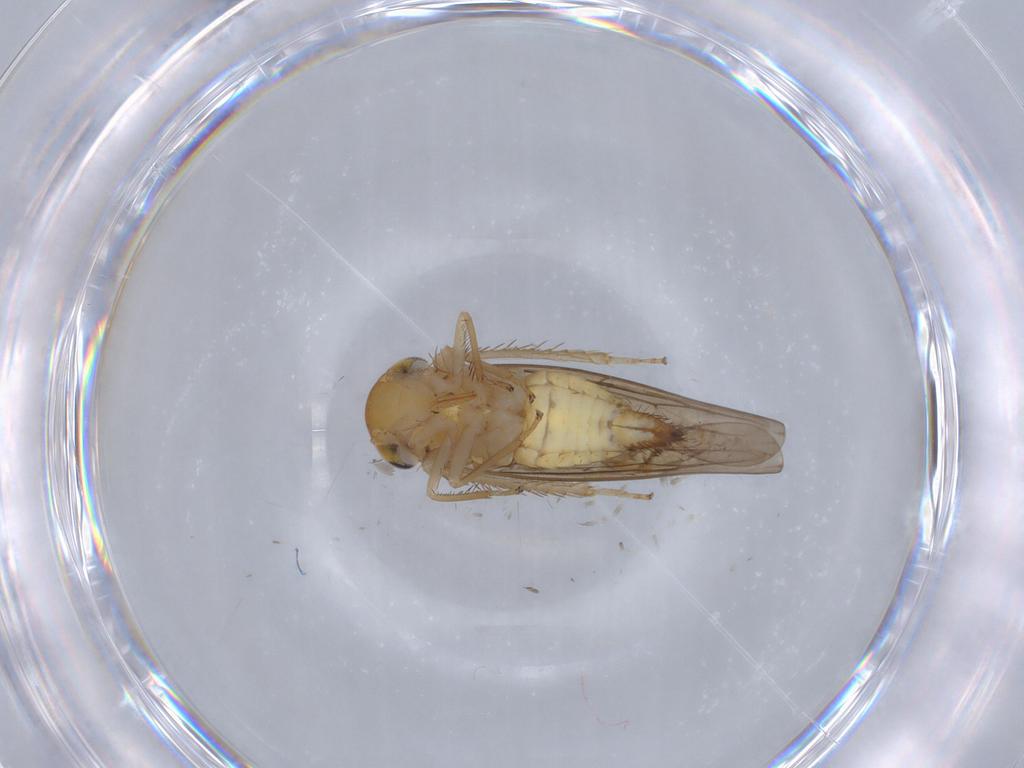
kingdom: Animalia
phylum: Arthropoda
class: Insecta
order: Hemiptera
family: Cicadellidae
